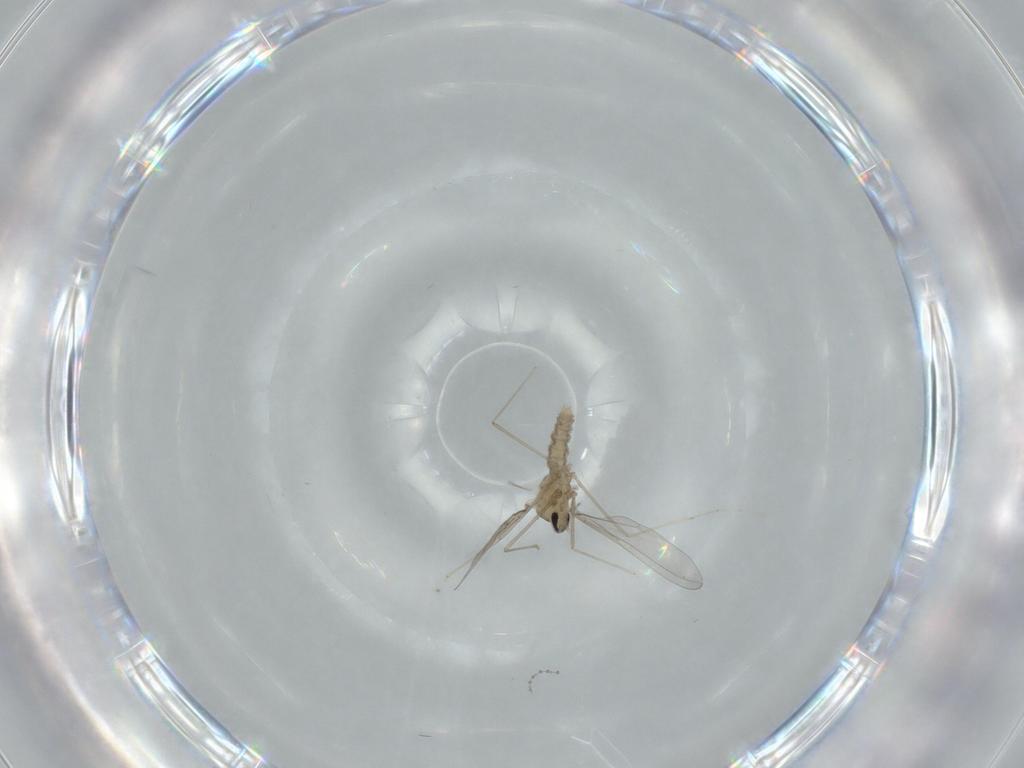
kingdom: Animalia
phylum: Arthropoda
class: Insecta
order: Diptera
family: Cecidomyiidae
